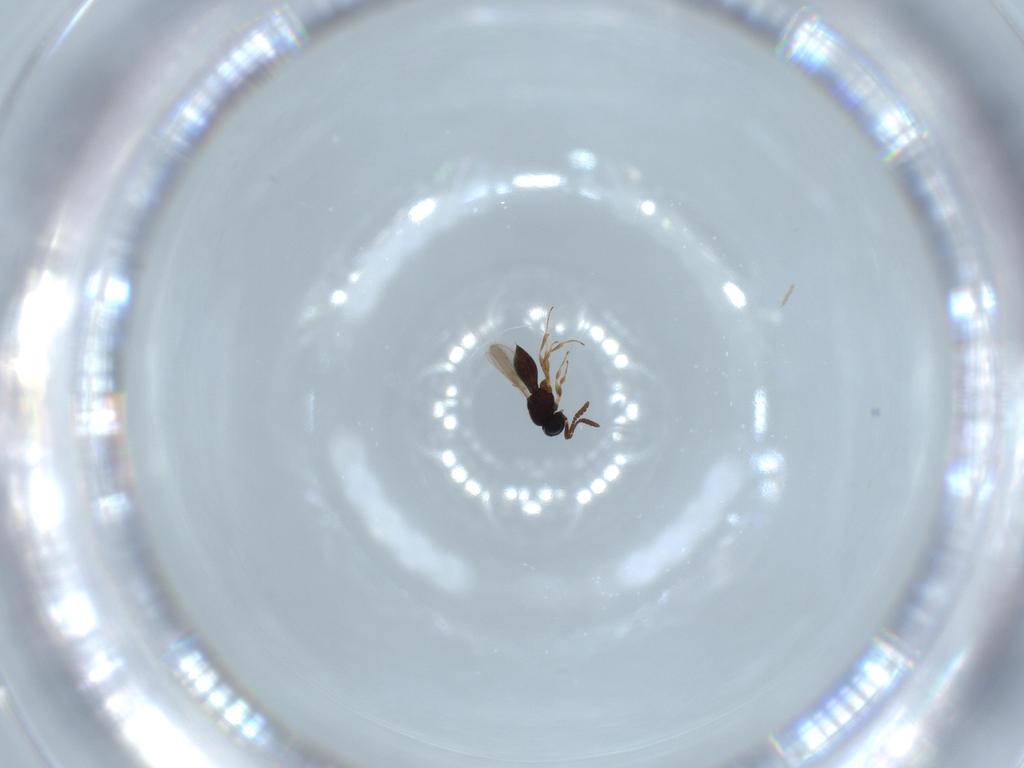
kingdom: Animalia
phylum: Arthropoda
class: Insecta
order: Hymenoptera
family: Scelionidae
